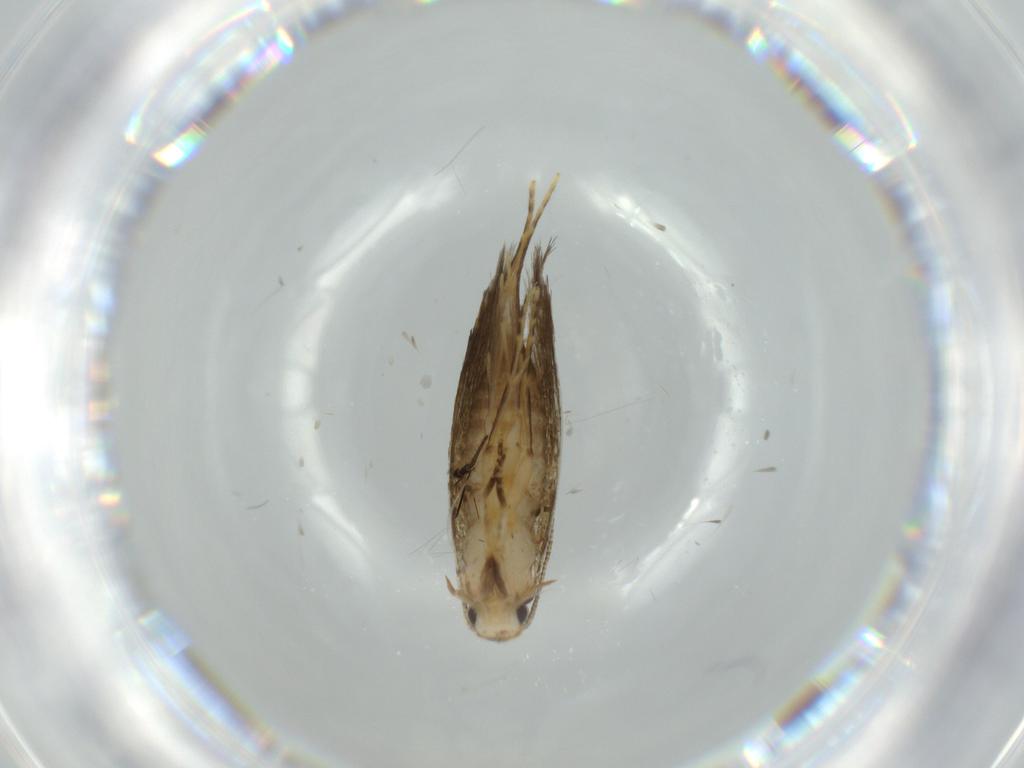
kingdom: Animalia
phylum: Arthropoda
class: Insecta
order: Lepidoptera
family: Tineidae
